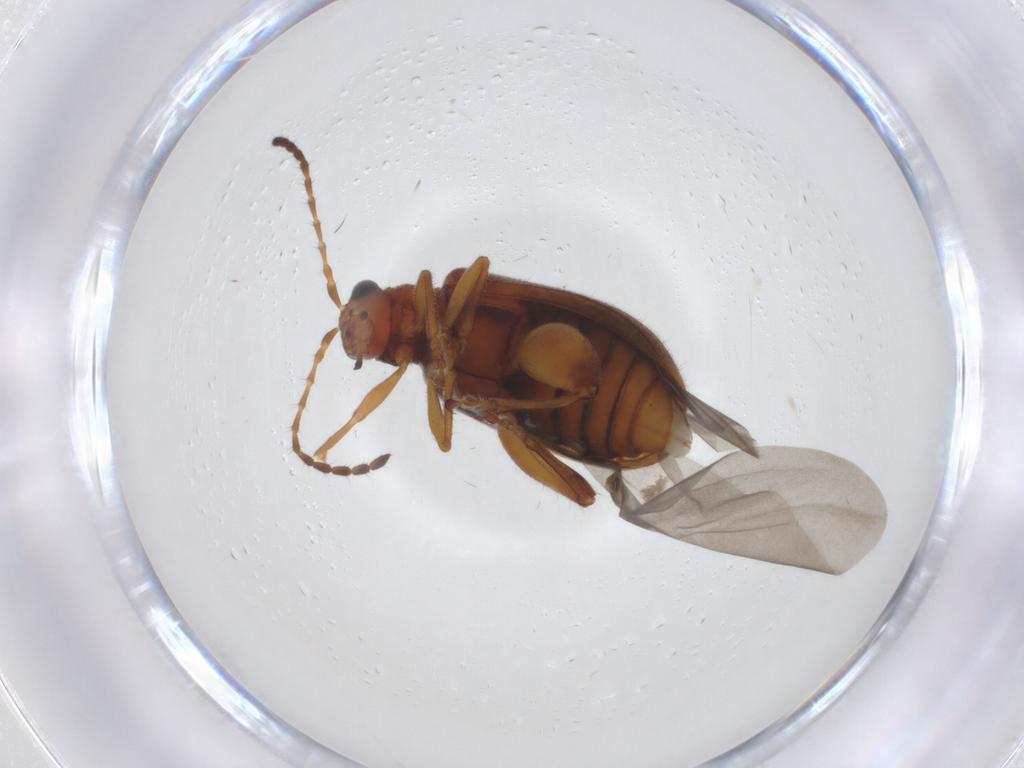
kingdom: Animalia
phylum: Arthropoda
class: Insecta
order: Coleoptera
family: Chrysomelidae
